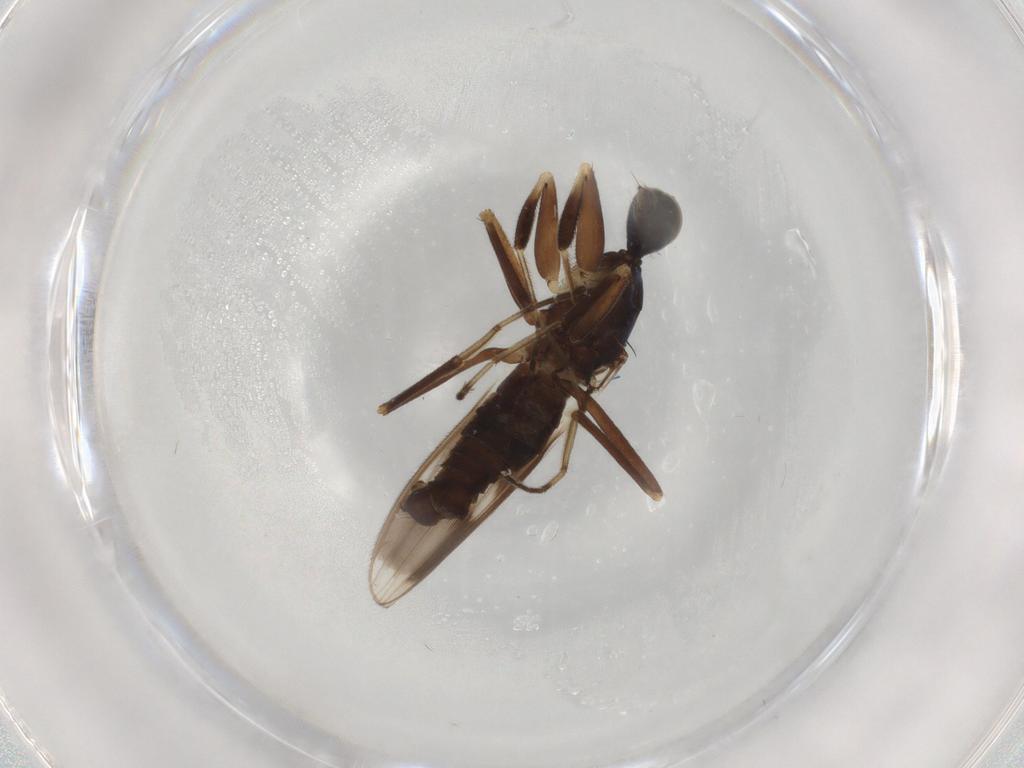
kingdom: Animalia
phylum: Arthropoda
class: Insecta
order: Diptera
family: Hybotidae
